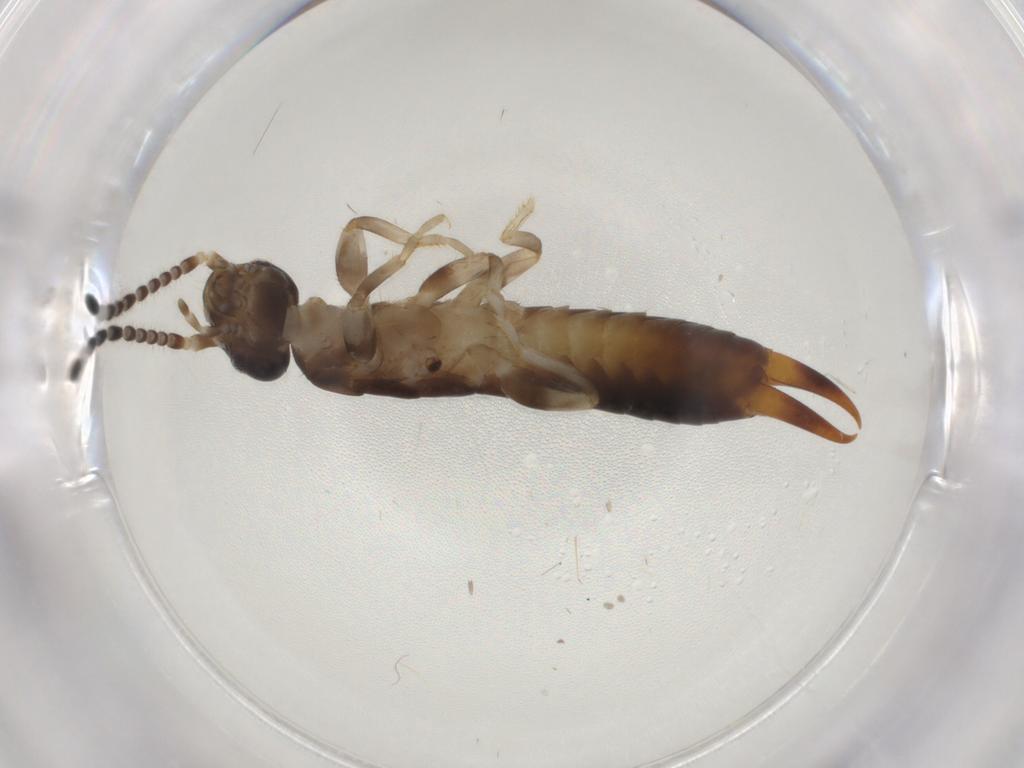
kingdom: Animalia
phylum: Arthropoda
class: Insecta
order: Dermaptera
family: Anisolabididae
